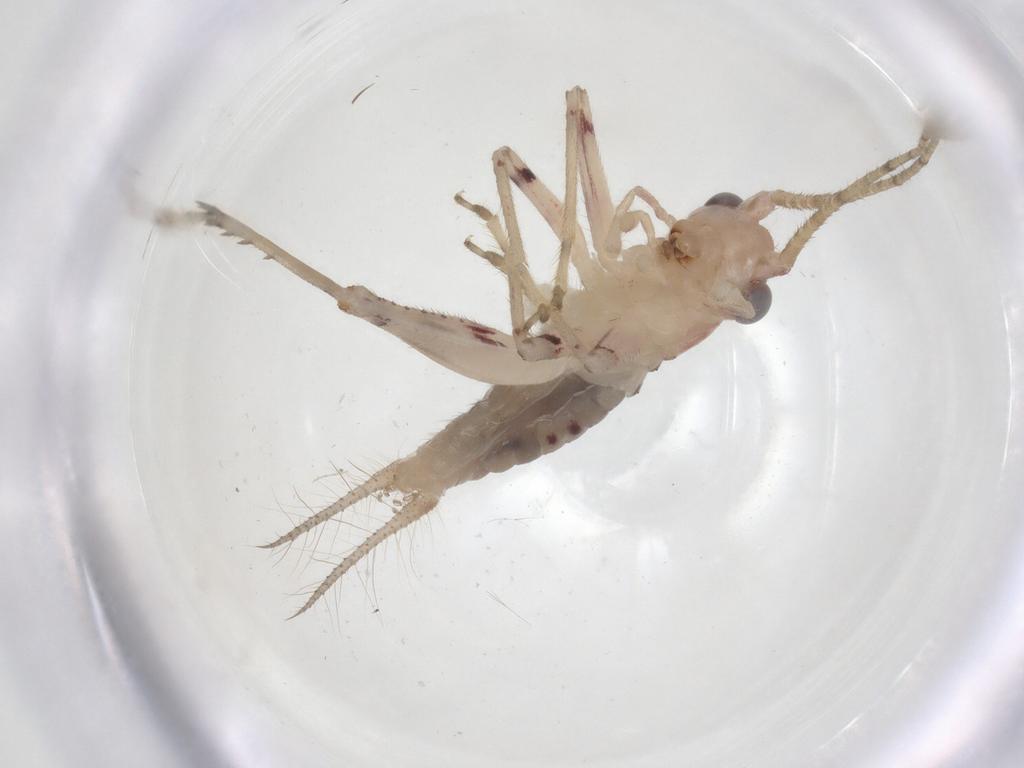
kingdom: Animalia
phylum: Arthropoda
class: Insecta
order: Orthoptera
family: Trigonidiidae
